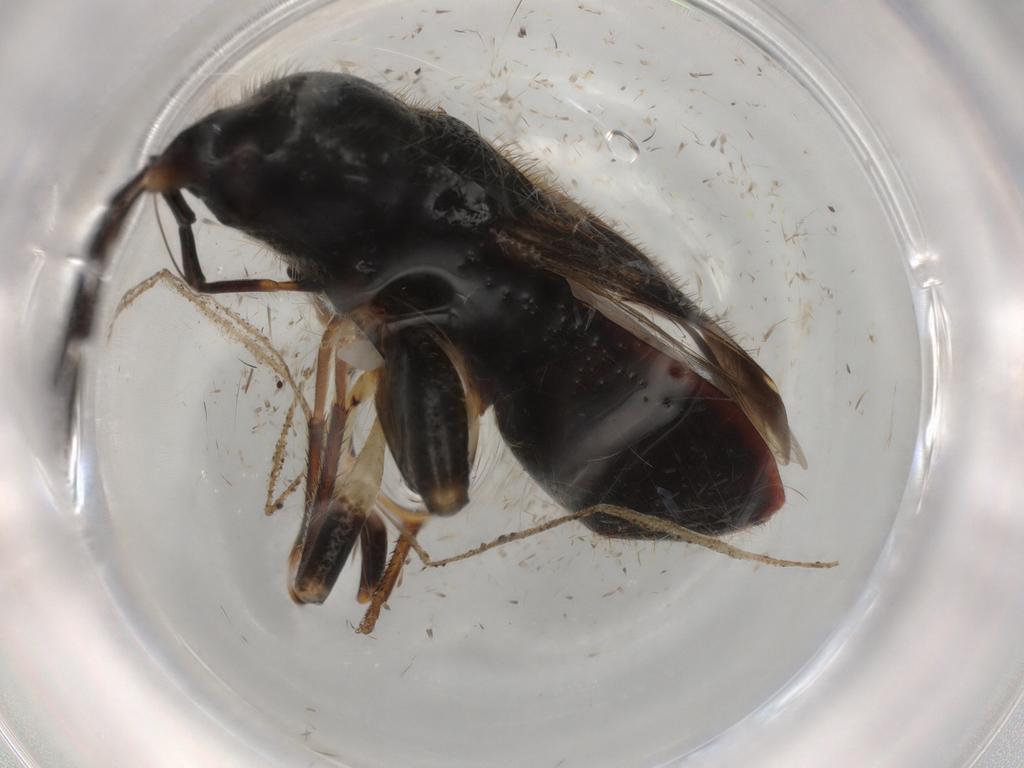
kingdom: Animalia
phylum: Arthropoda
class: Insecta
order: Hemiptera
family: Rhyparochromidae
